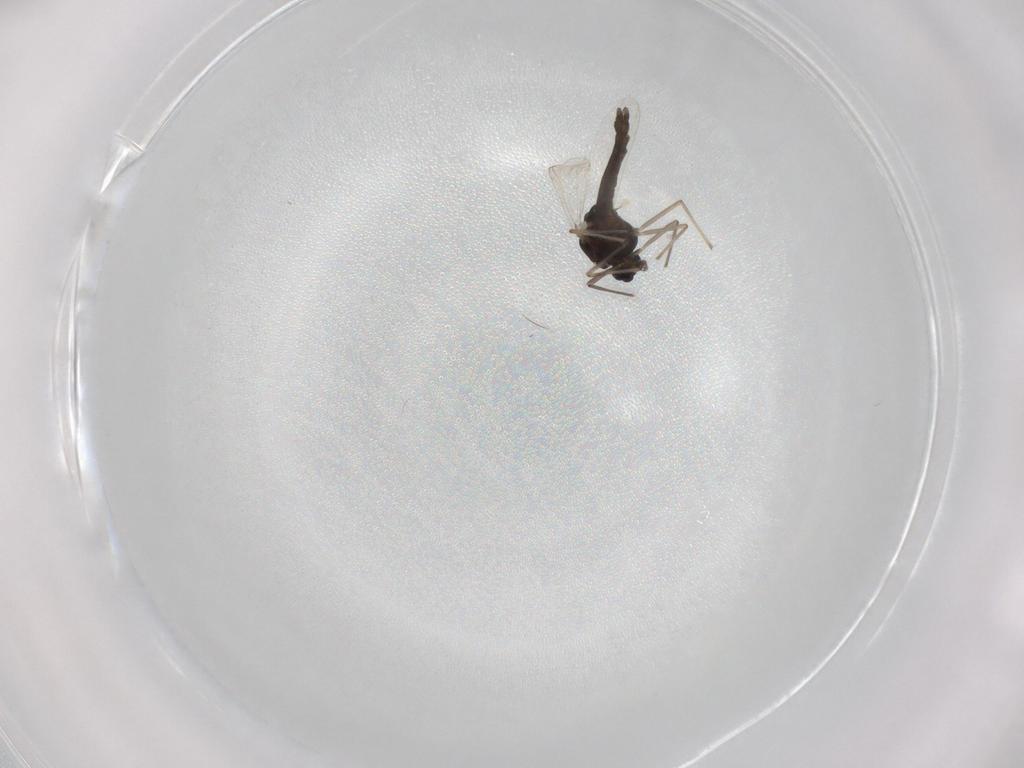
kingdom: Animalia
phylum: Arthropoda
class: Insecta
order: Diptera
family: Chironomidae
